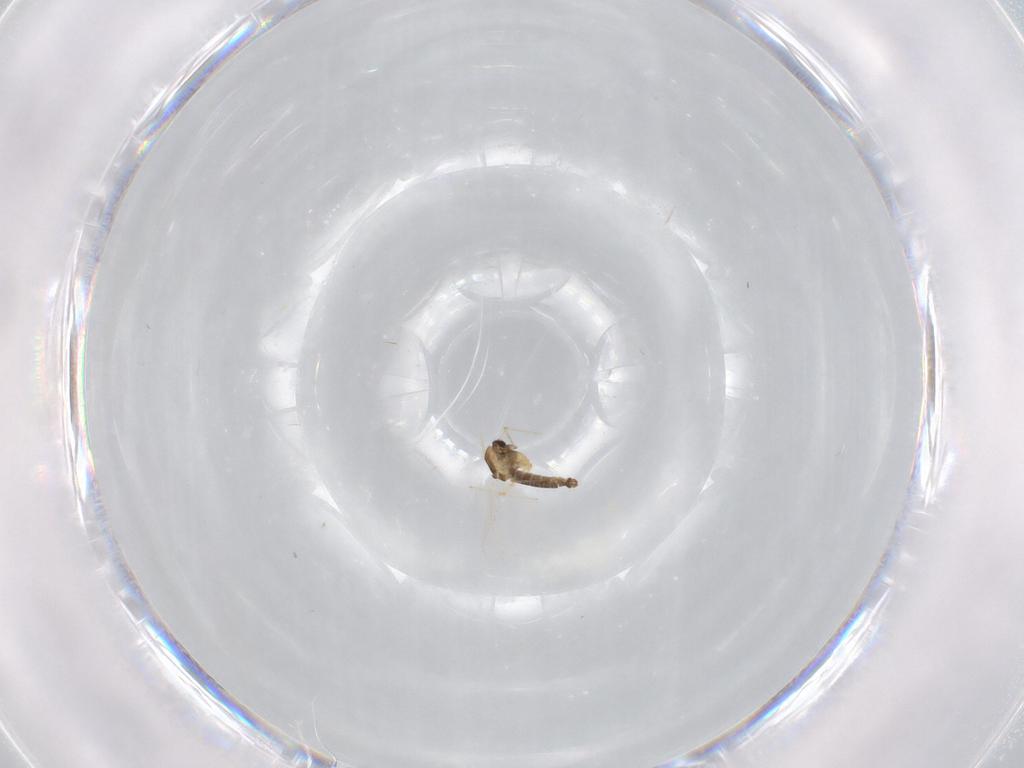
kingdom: Animalia
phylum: Arthropoda
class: Insecta
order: Diptera
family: Chironomidae
